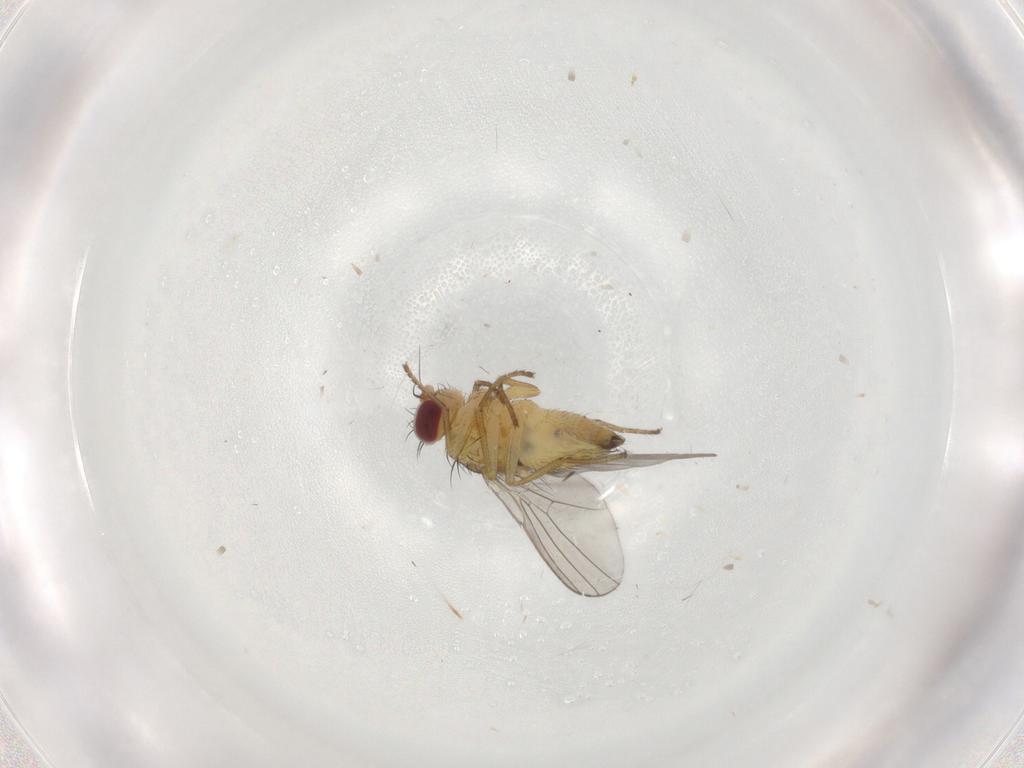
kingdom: Animalia
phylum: Arthropoda
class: Insecta
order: Diptera
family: Agromyzidae
